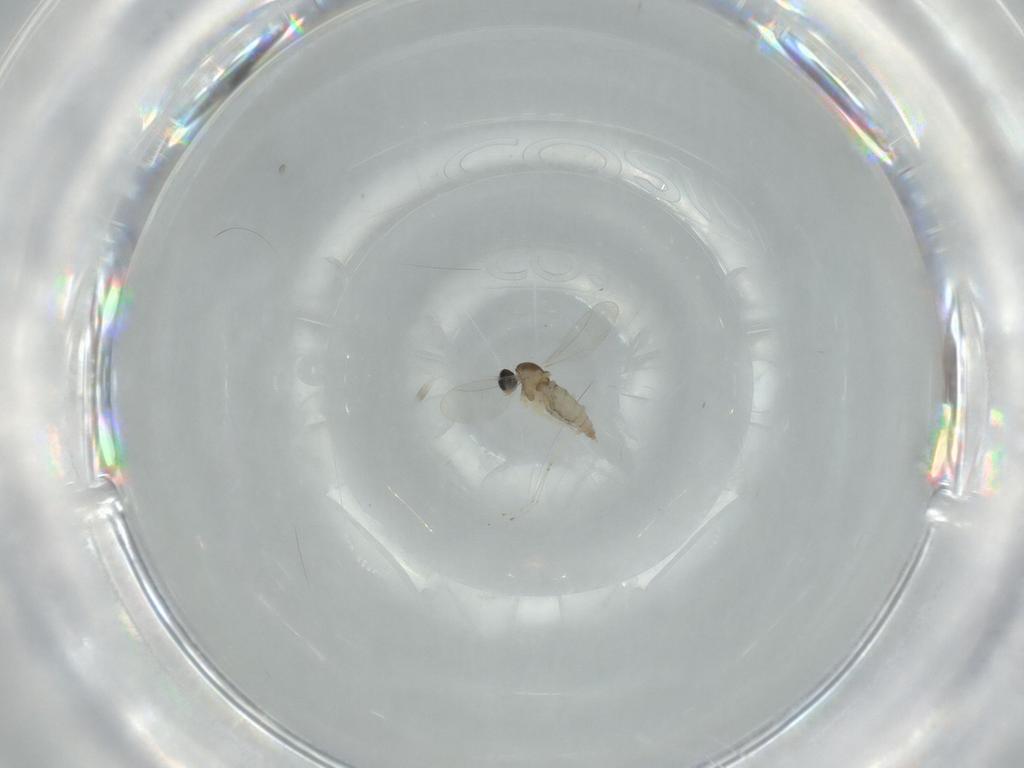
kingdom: Animalia
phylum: Arthropoda
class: Insecta
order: Diptera
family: Cecidomyiidae
